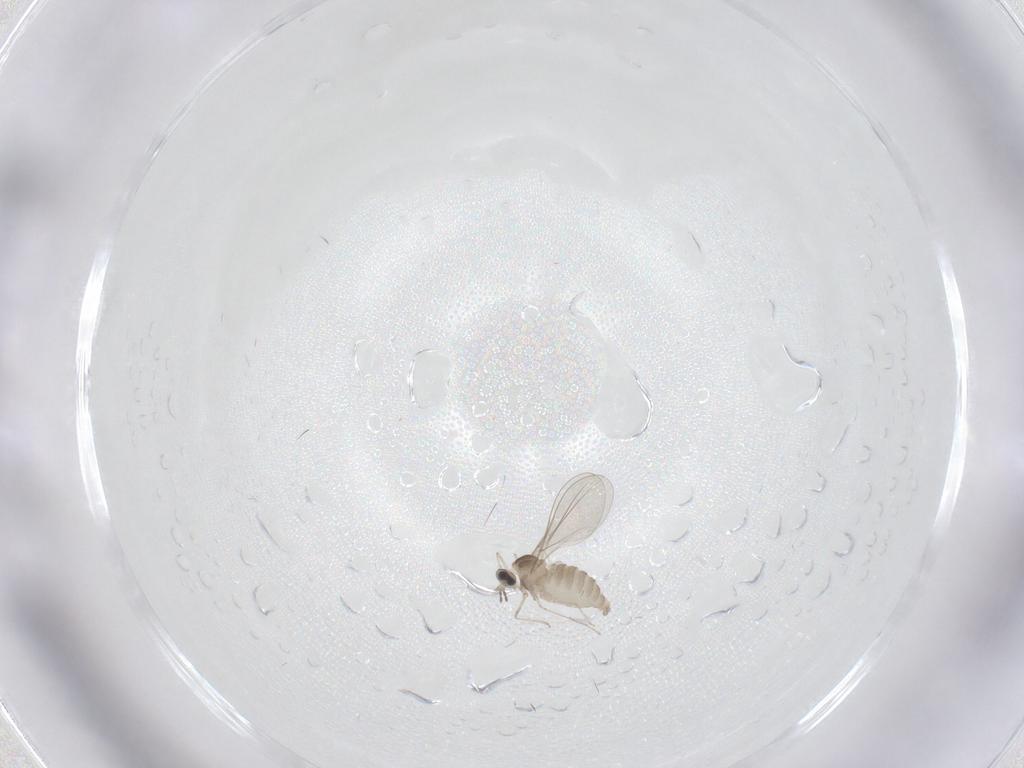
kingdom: Animalia
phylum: Arthropoda
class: Insecta
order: Diptera
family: Cecidomyiidae
